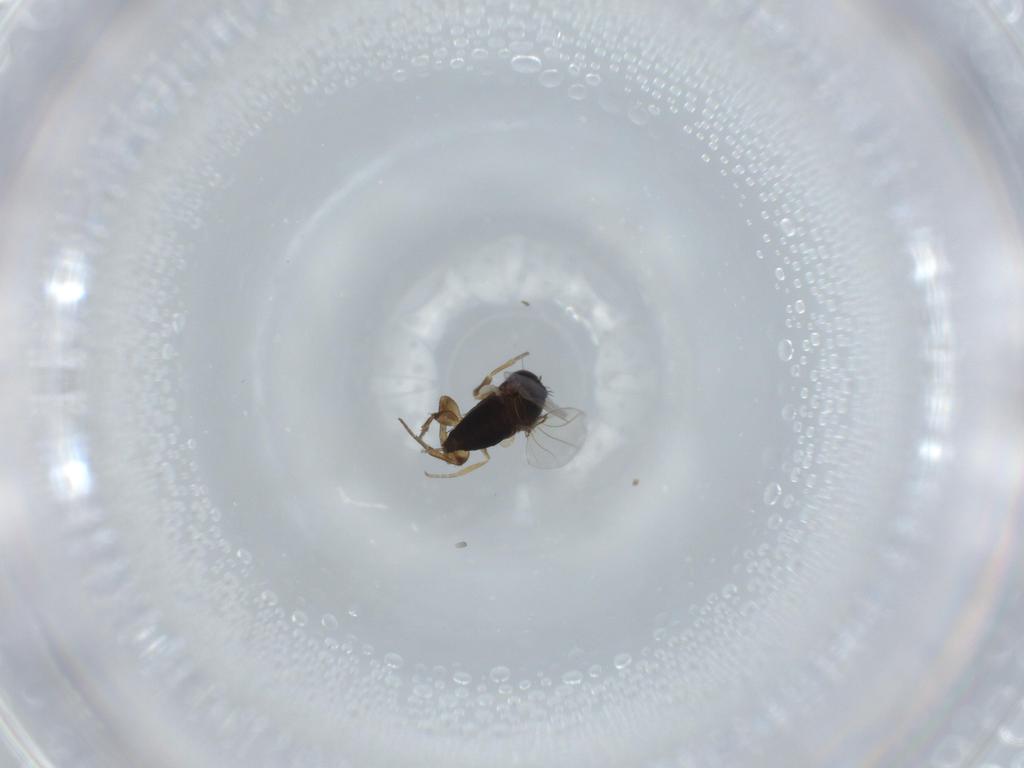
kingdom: Animalia
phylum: Arthropoda
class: Insecta
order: Diptera
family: Phoridae
